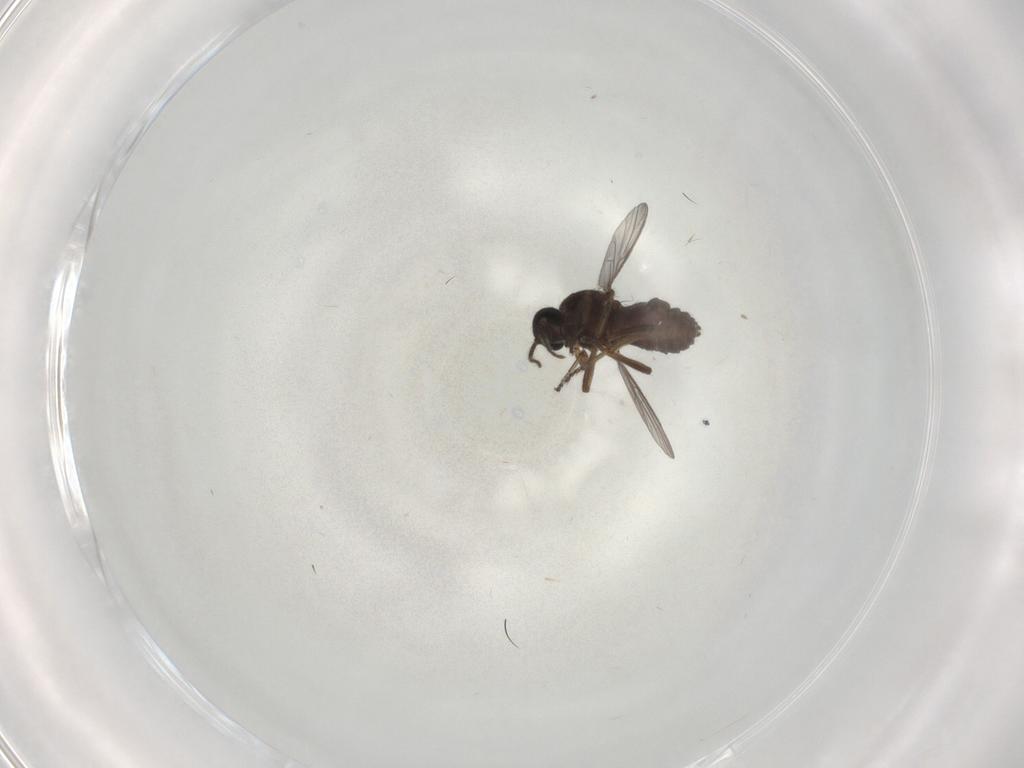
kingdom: Animalia
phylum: Arthropoda
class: Insecta
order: Diptera
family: Ceratopogonidae
